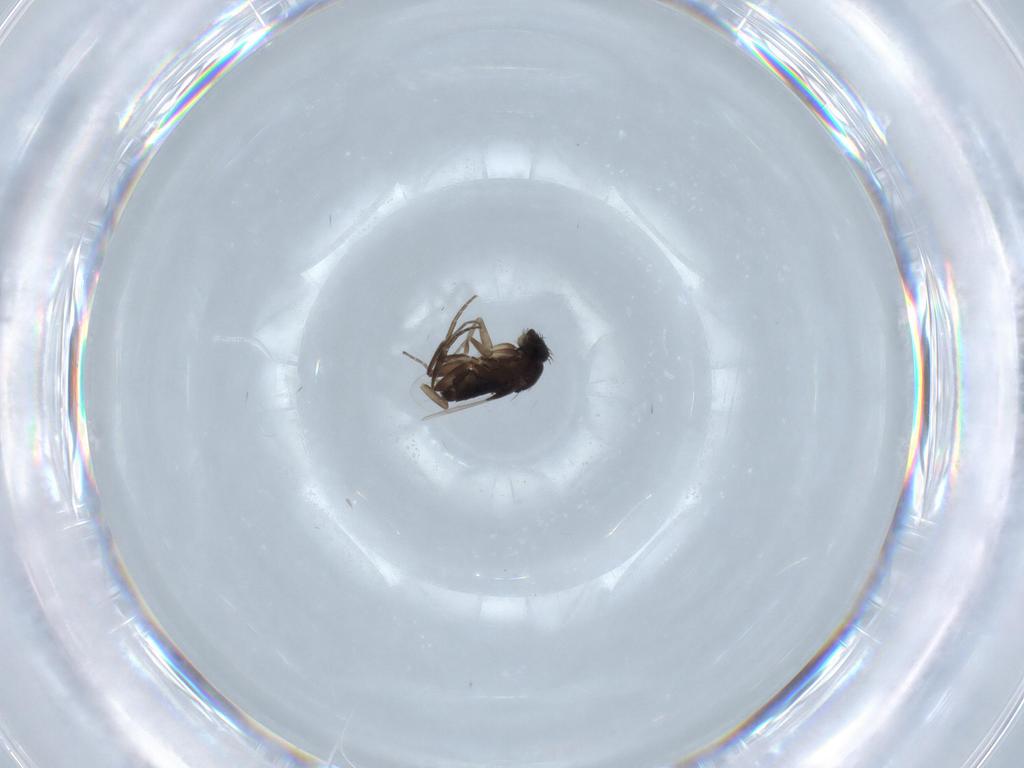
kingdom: Animalia
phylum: Arthropoda
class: Insecta
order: Diptera
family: Phoridae
